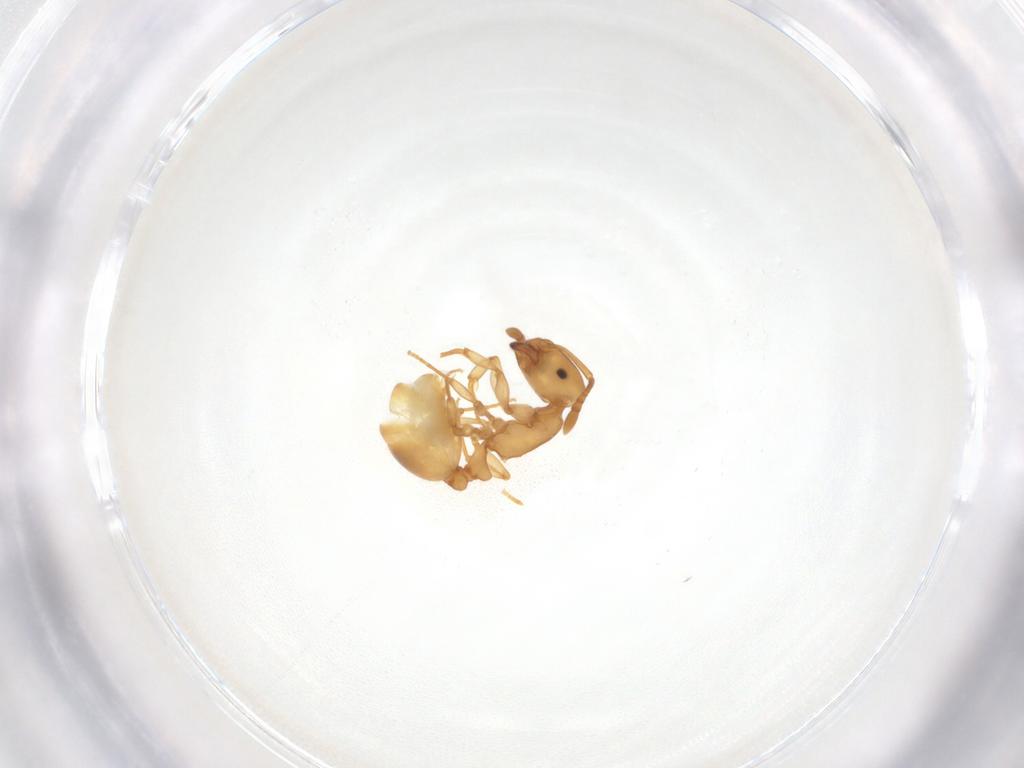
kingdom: Animalia
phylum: Arthropoda
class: Insecta
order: Hymenoptera
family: Formicidae
